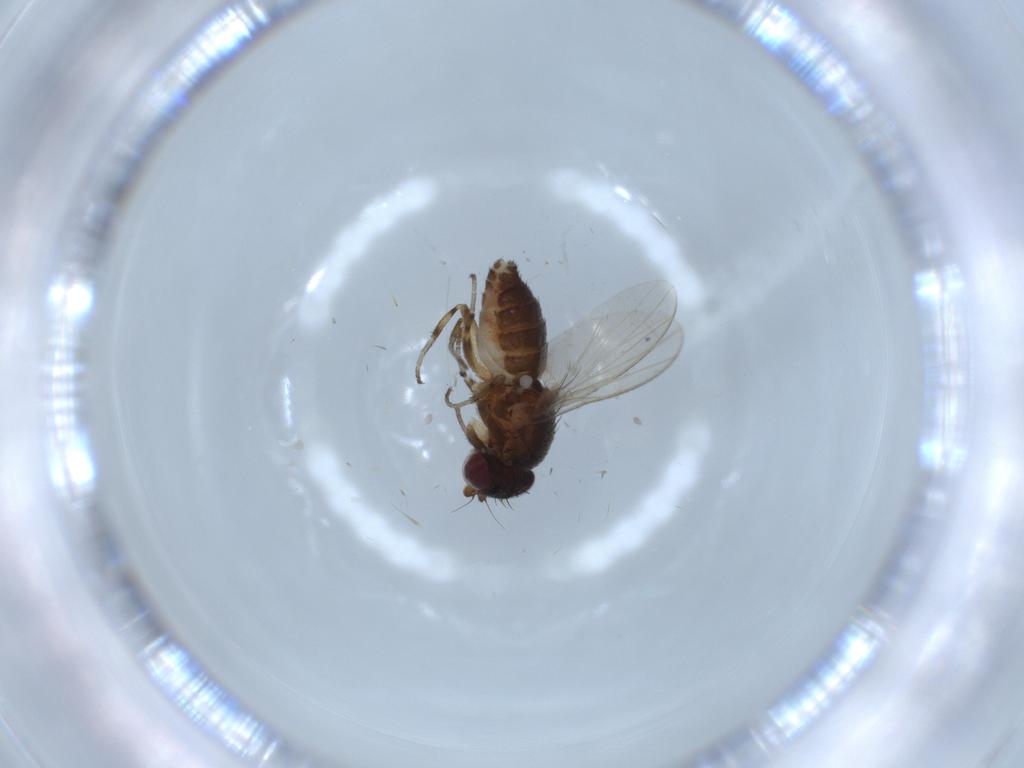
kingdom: Animalia
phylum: Arthropoda
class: Insecta
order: Diptera
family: Heleomyzidae
